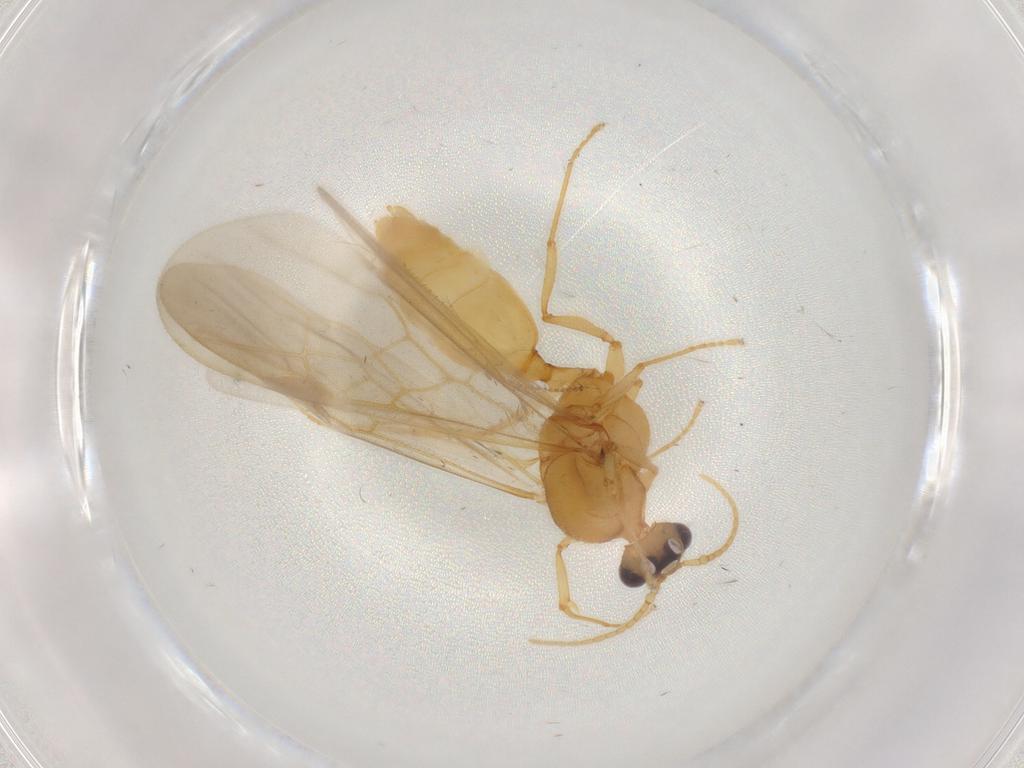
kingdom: Animalia
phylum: Arthropoda
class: Insecta
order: Hymenoptera
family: Formicidae
